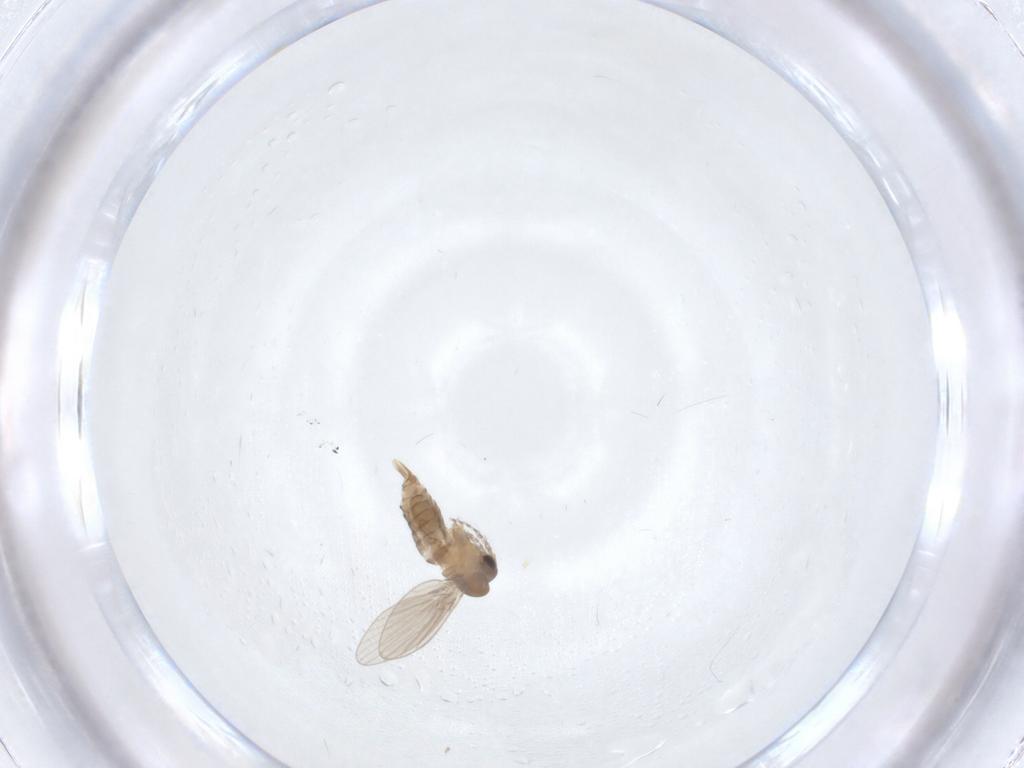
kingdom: Animalia
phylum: Arthropoda
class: Insecta
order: Diptera
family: Psychodidae
